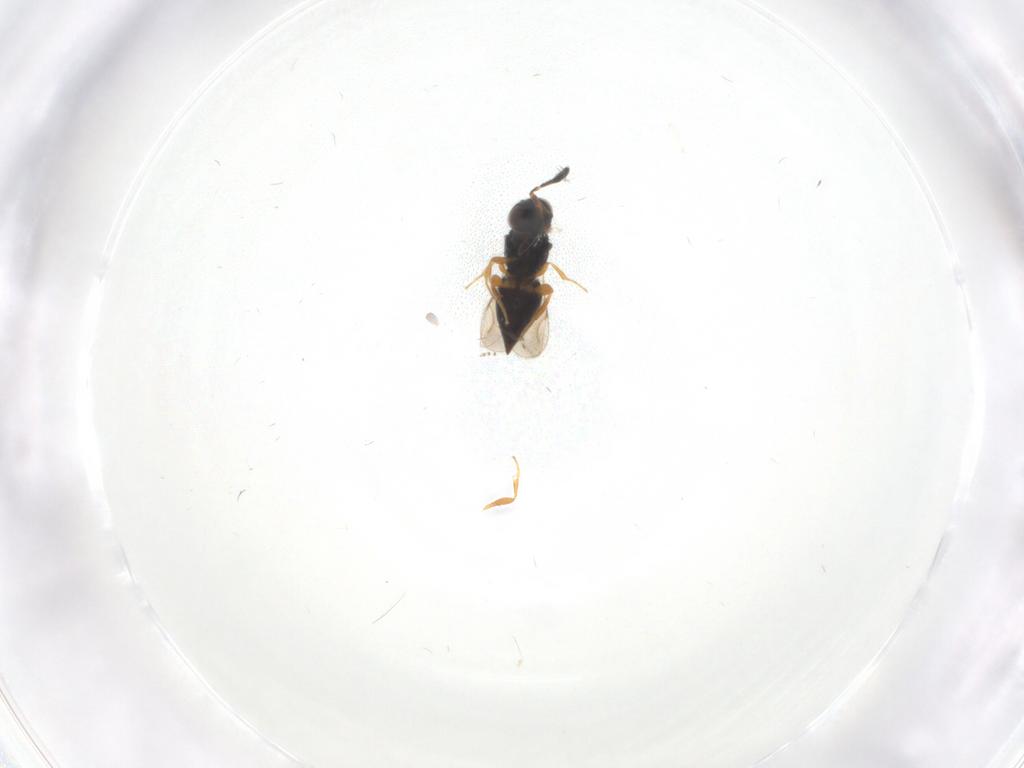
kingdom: Animalia
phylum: Arthropoda
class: Insecta
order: Hymenoptera
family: Ceraphronidae
